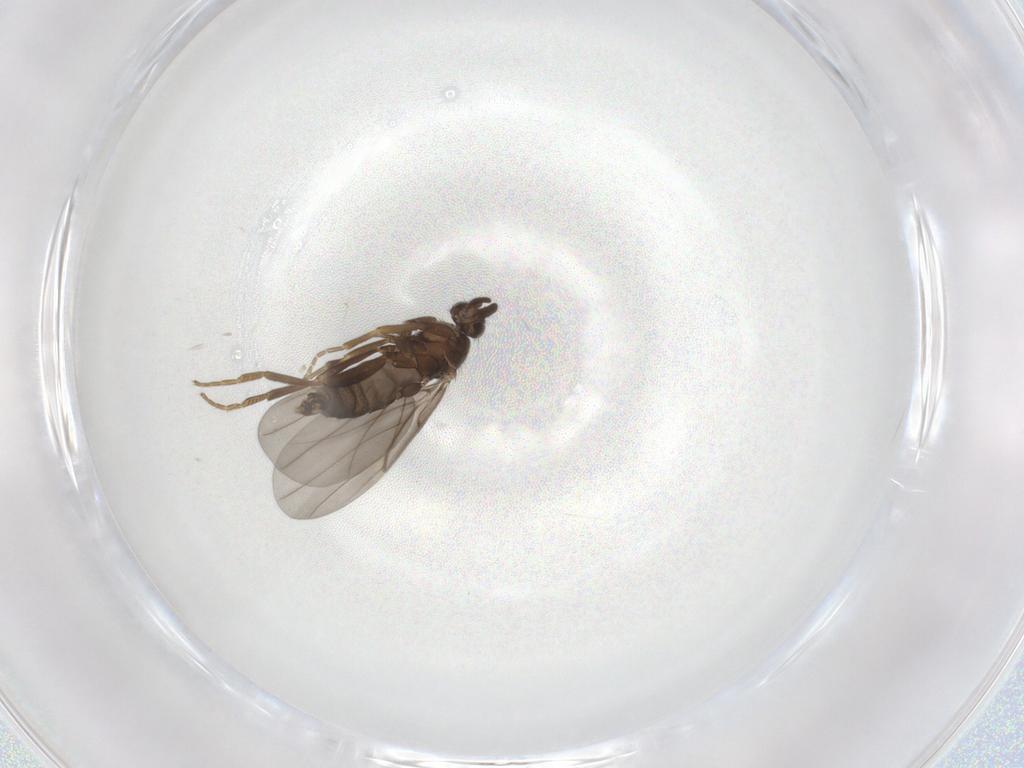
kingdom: Animalia
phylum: Arthropoda
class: Insecta
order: Diptera
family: Phoridae
